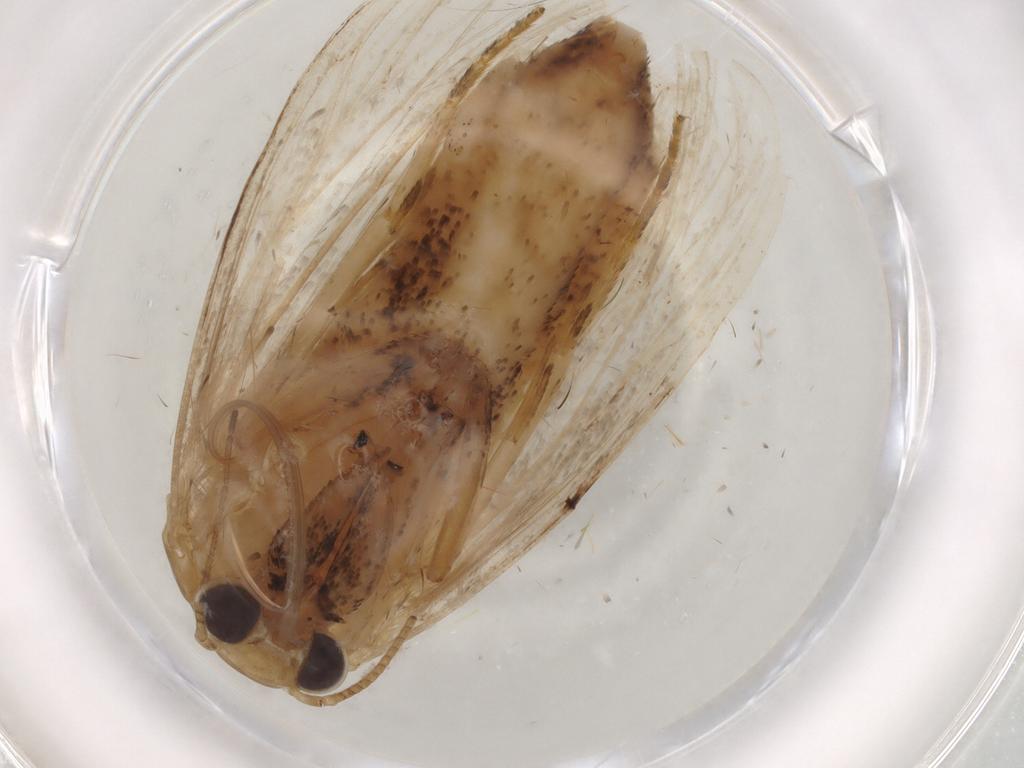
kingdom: Animalia
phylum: Arthropoda
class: Insecta
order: Lepidoptera
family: Nolidae
